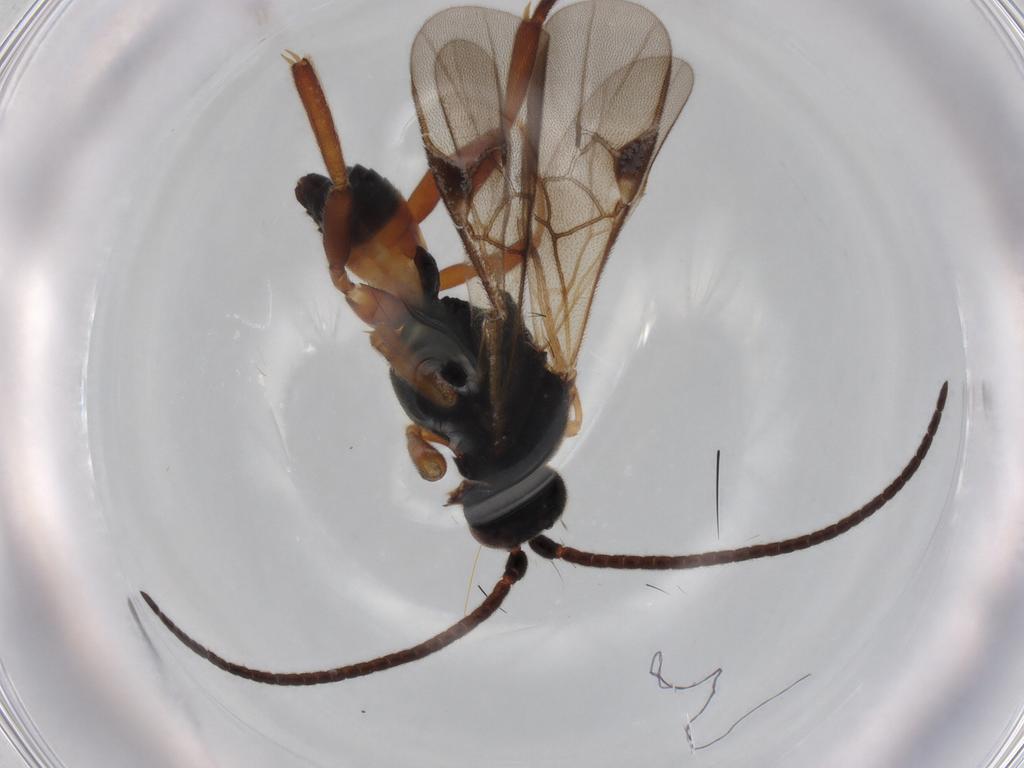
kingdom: Animalia
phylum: Arthropoda
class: Insecta
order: Hymenoptera
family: Braconidae
